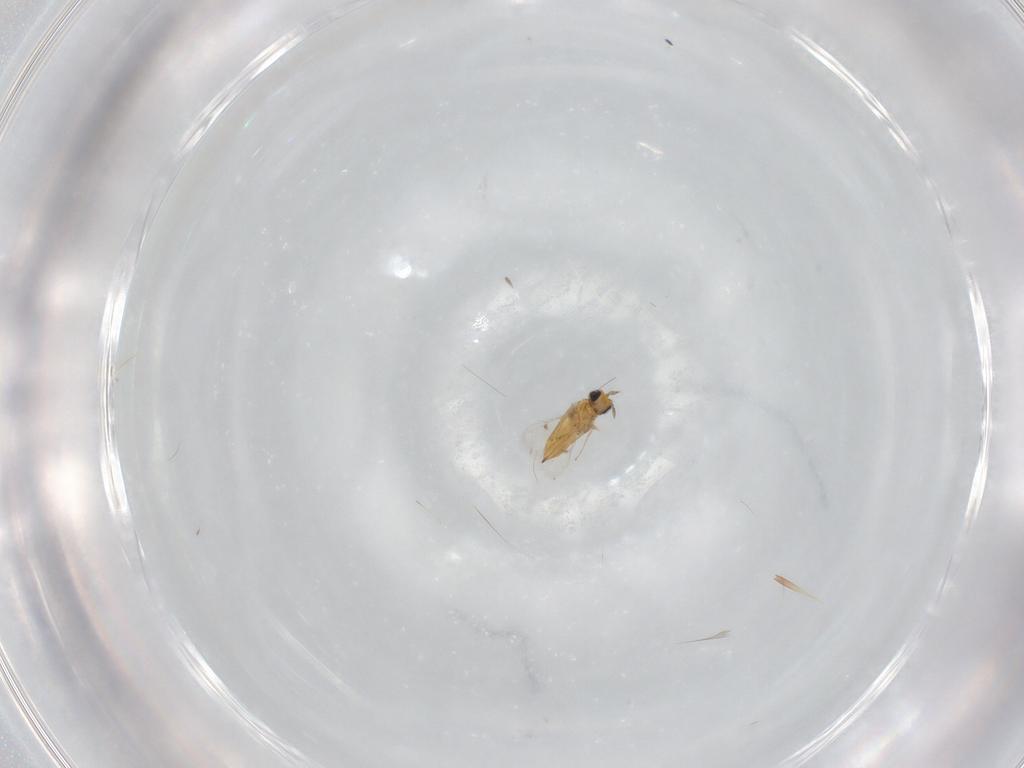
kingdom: Animalia
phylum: Arthropoda
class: Insecta
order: Hymenoptera
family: Trichogrammatidae
